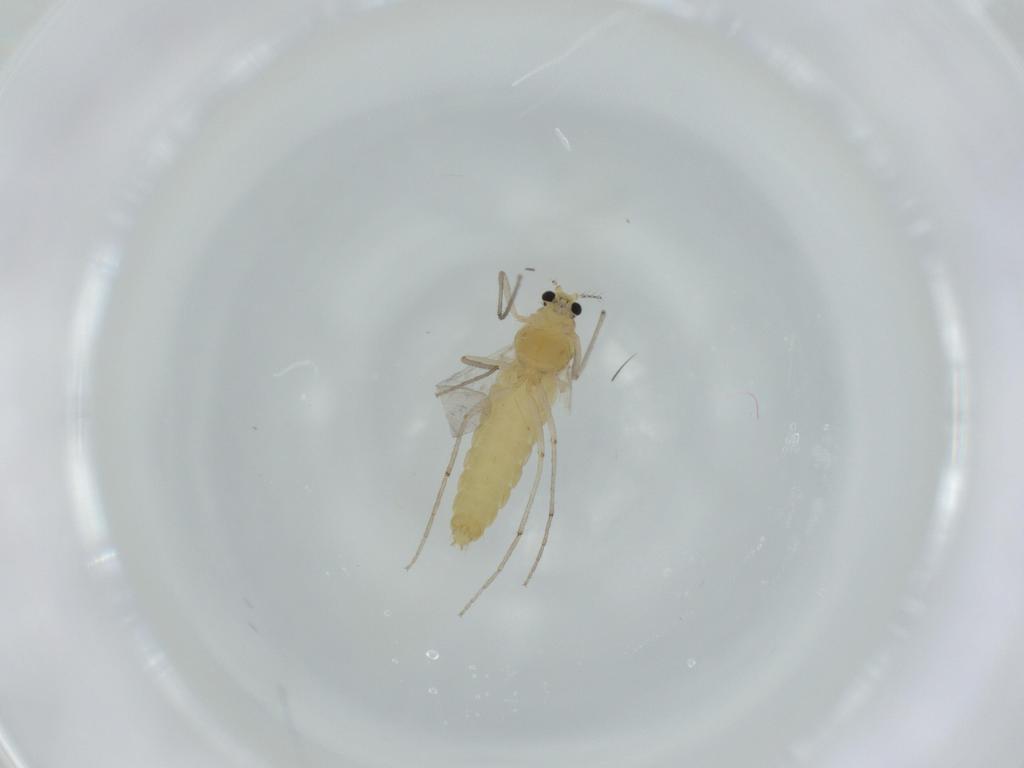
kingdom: Animalia
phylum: Arthropoda
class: Insecta
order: Diptera
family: Chironomidae
